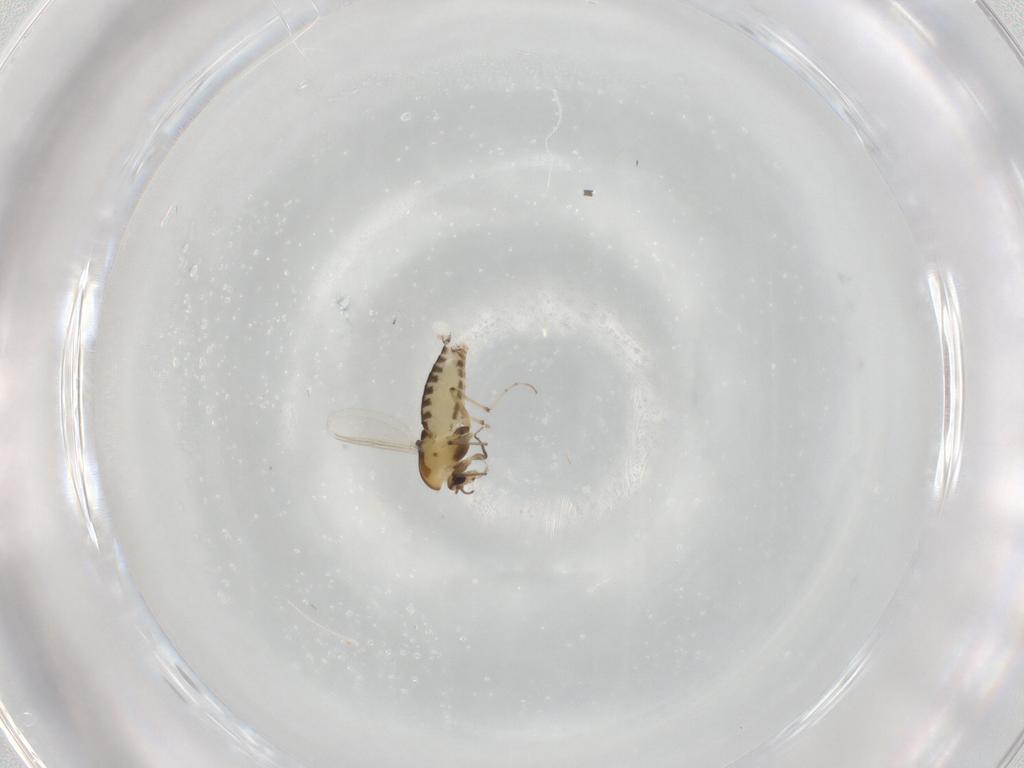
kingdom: Animalia
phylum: Arthropoda
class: Insecta
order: Diptera
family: Chironomidae
